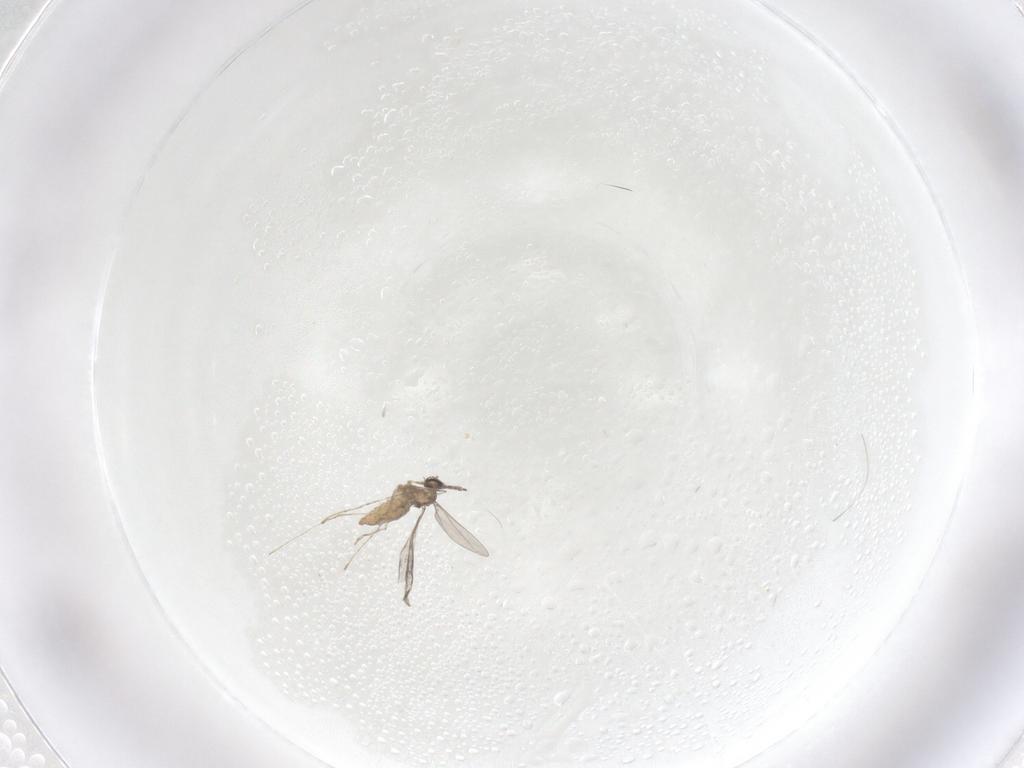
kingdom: Animalia
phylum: Arthropoda
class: Insecta
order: Diptera
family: Cecidomyiidae
